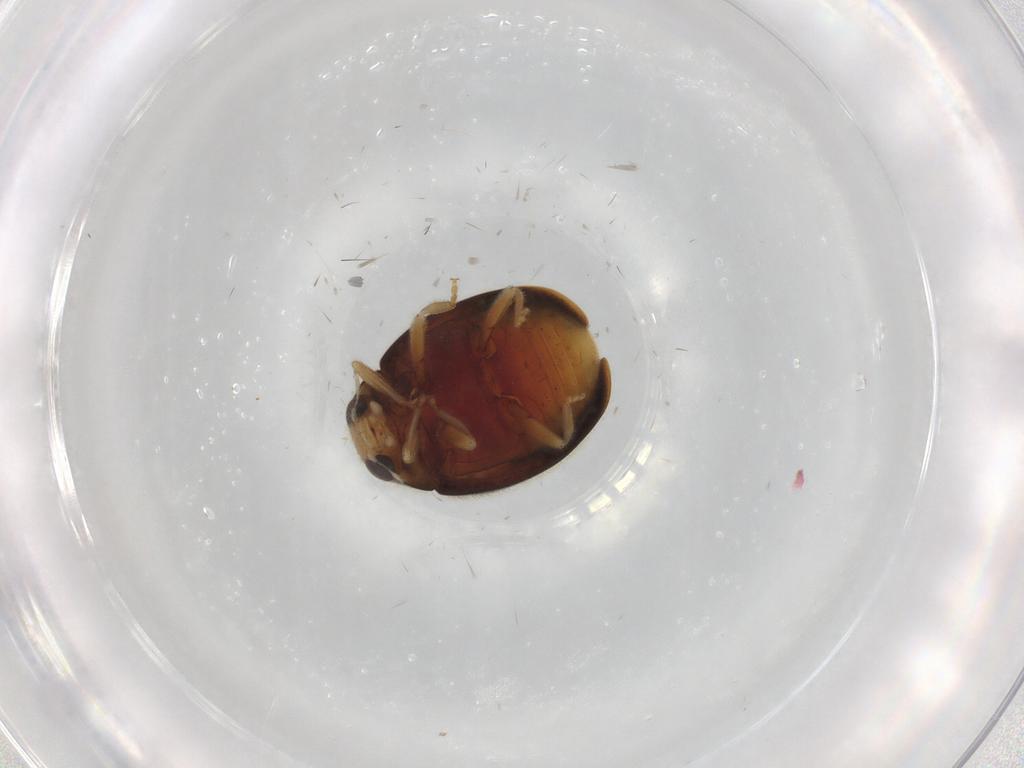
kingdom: Animalia
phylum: Arthropoda
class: Insecta
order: Coleoptera
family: Coccinellidae
